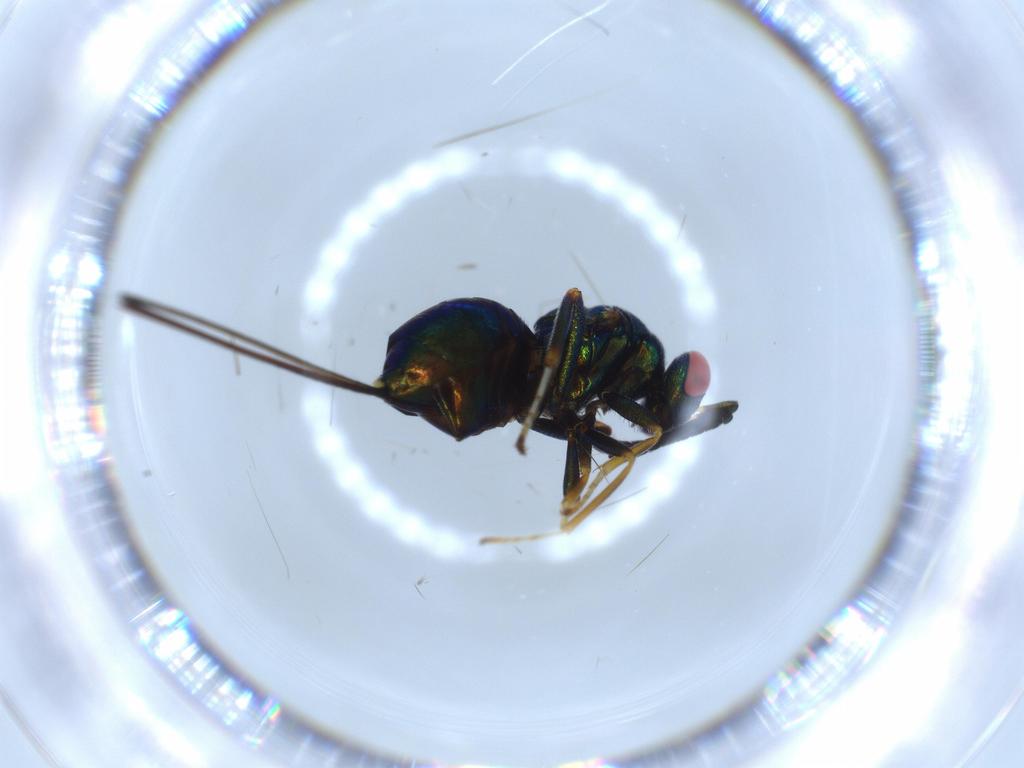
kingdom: Animalia
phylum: Arthropoda
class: Insecta
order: Hymenoptera
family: Pteromalidae
